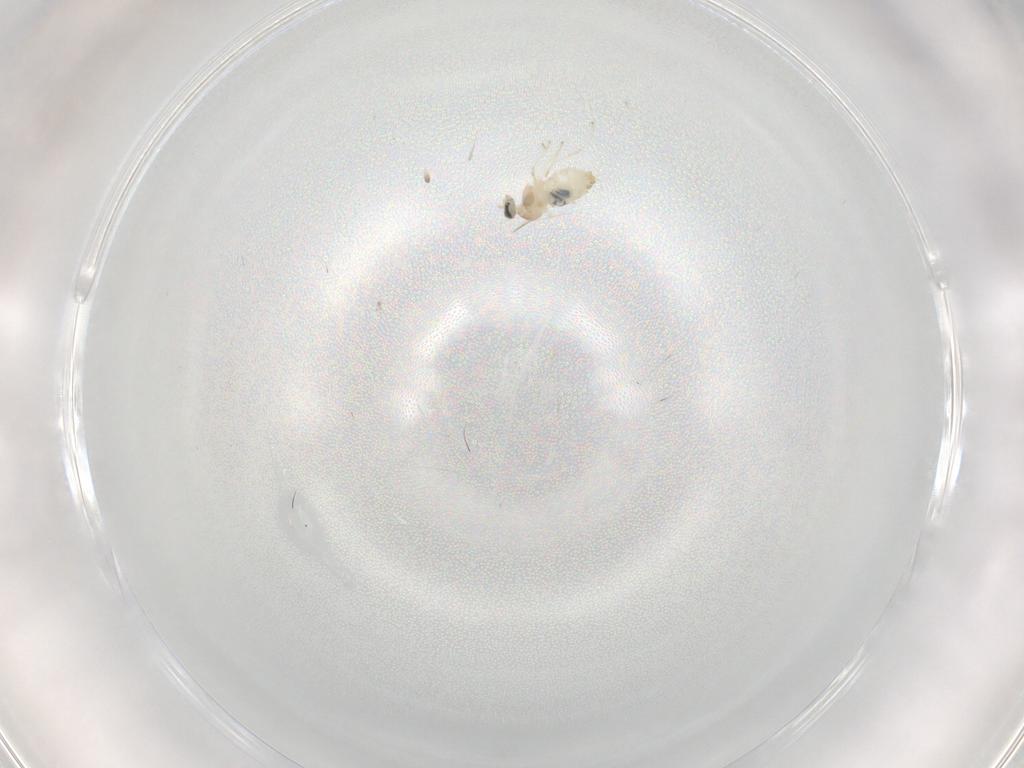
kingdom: Animalia
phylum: Arthropoda
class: Insecta
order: Diptera
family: Cecidomyiidae
